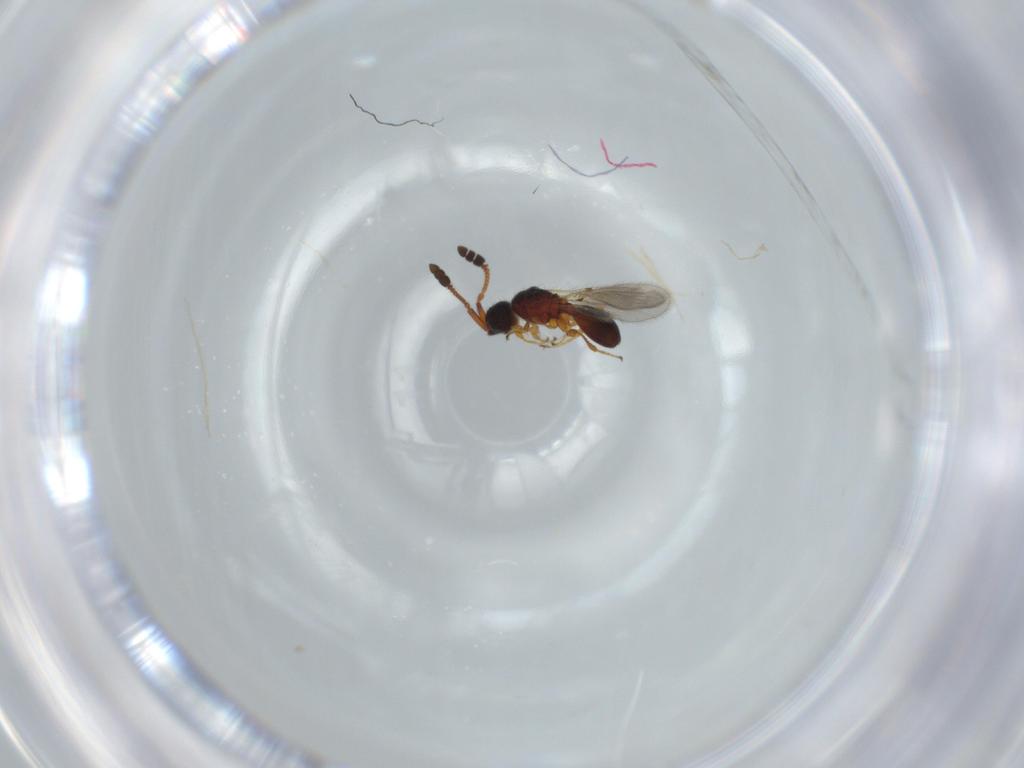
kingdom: Animalia
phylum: Arthropoda
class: Insecta
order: Hymenoptera
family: Diapriidae
